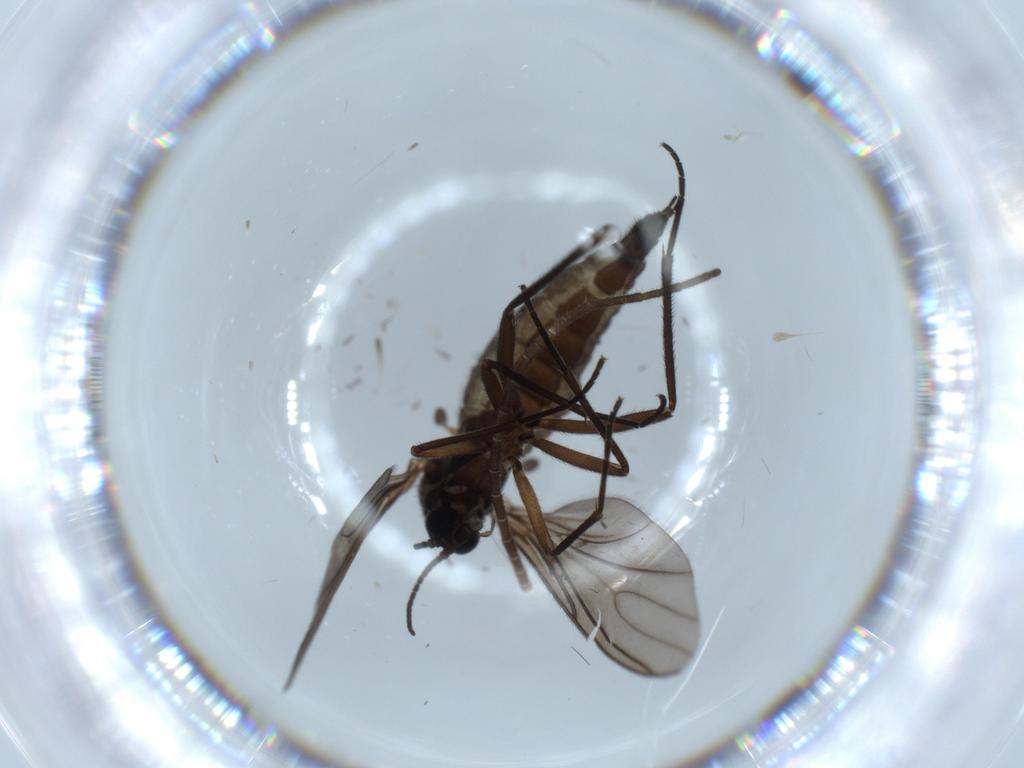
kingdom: Animalia
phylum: Arthropoda
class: Insecta
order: Diptera
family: Sciaridae
